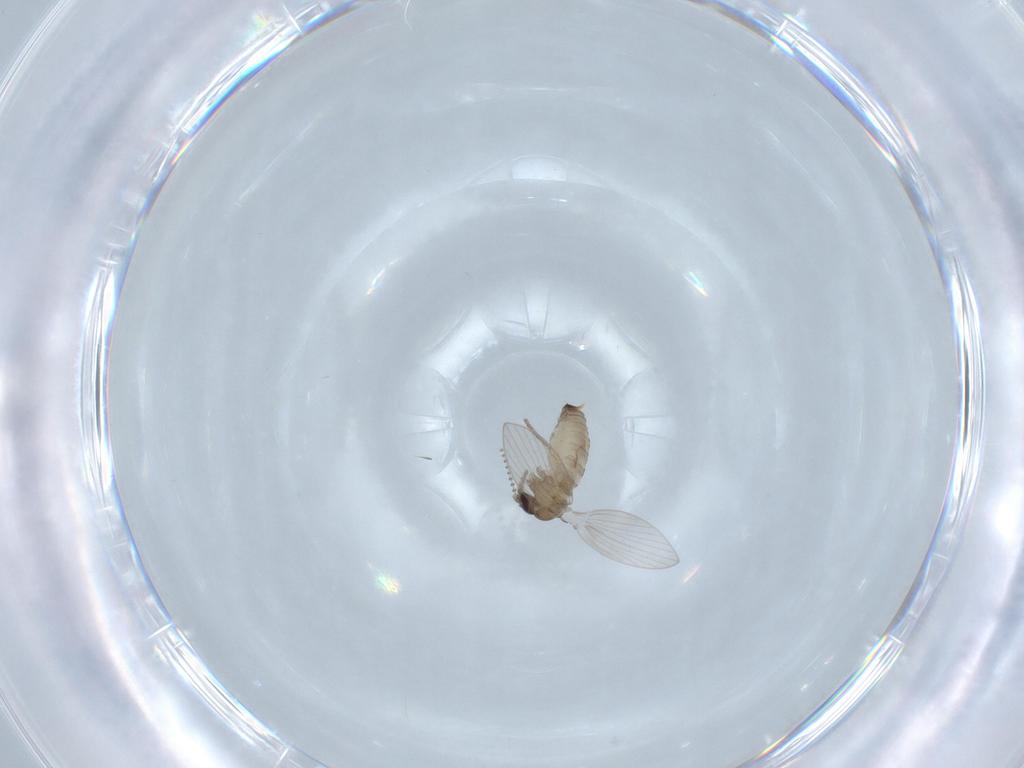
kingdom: Animalia
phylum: Arthropoda
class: Insecta
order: Diptera
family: Psychodidae
